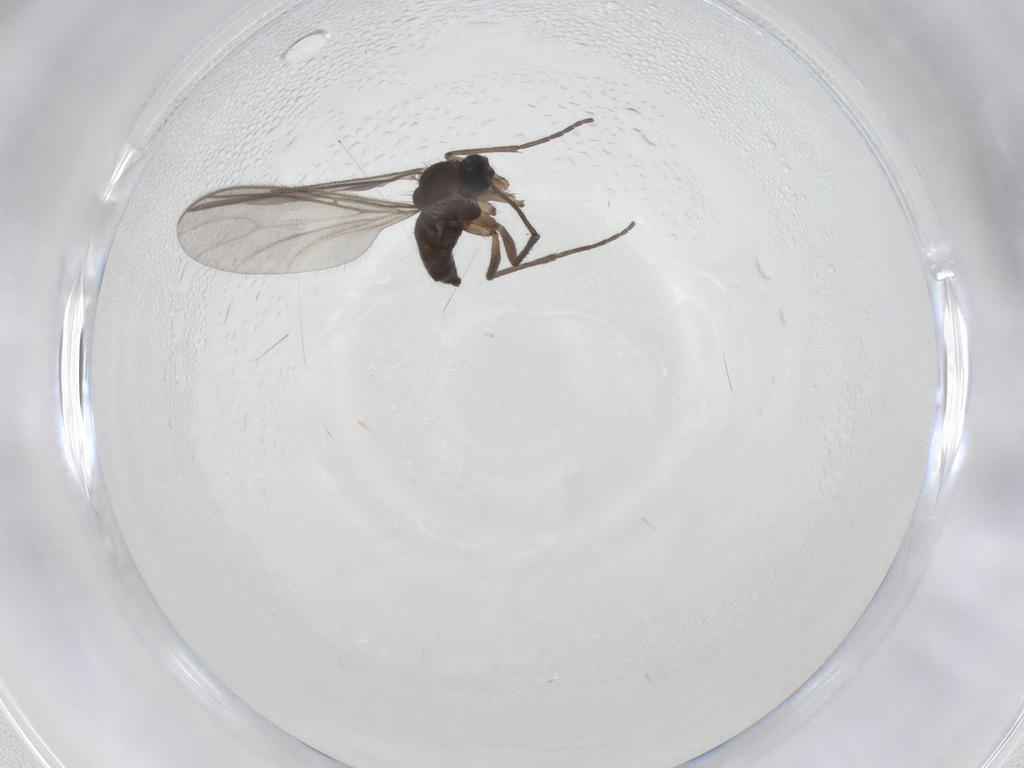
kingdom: Animalia
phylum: Arthropoda
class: Insecta
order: Diptera
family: Sciaridae
